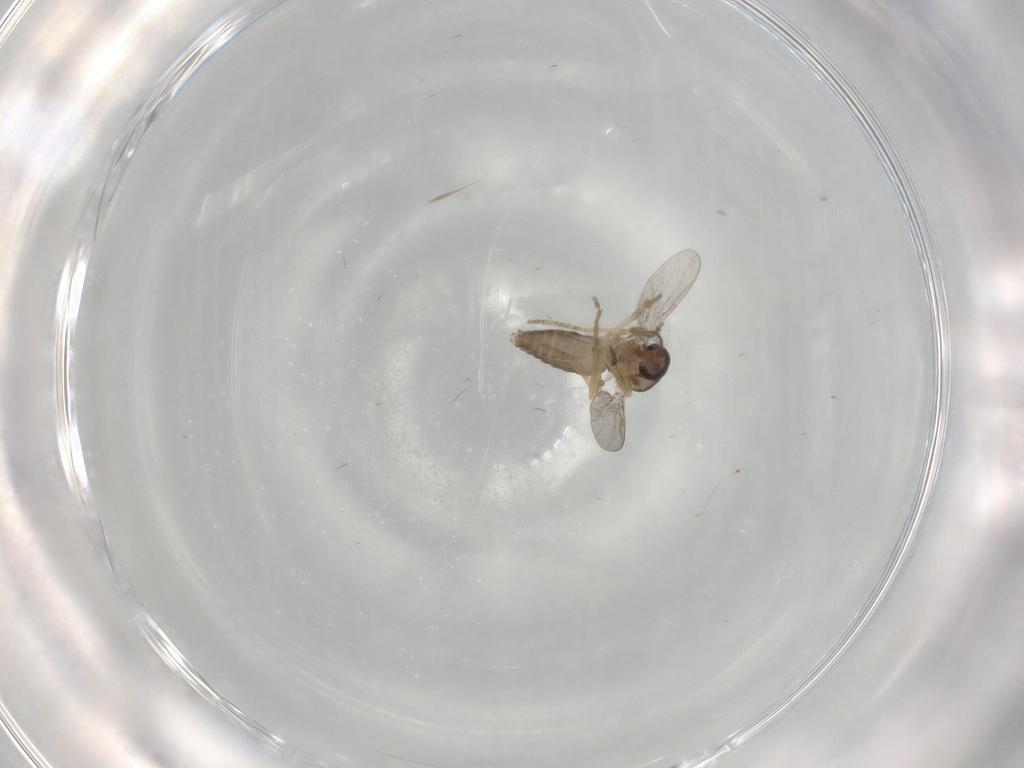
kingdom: Animalia
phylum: Arthropoda
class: Insecta
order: Diptera
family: Ceratopogonidae
